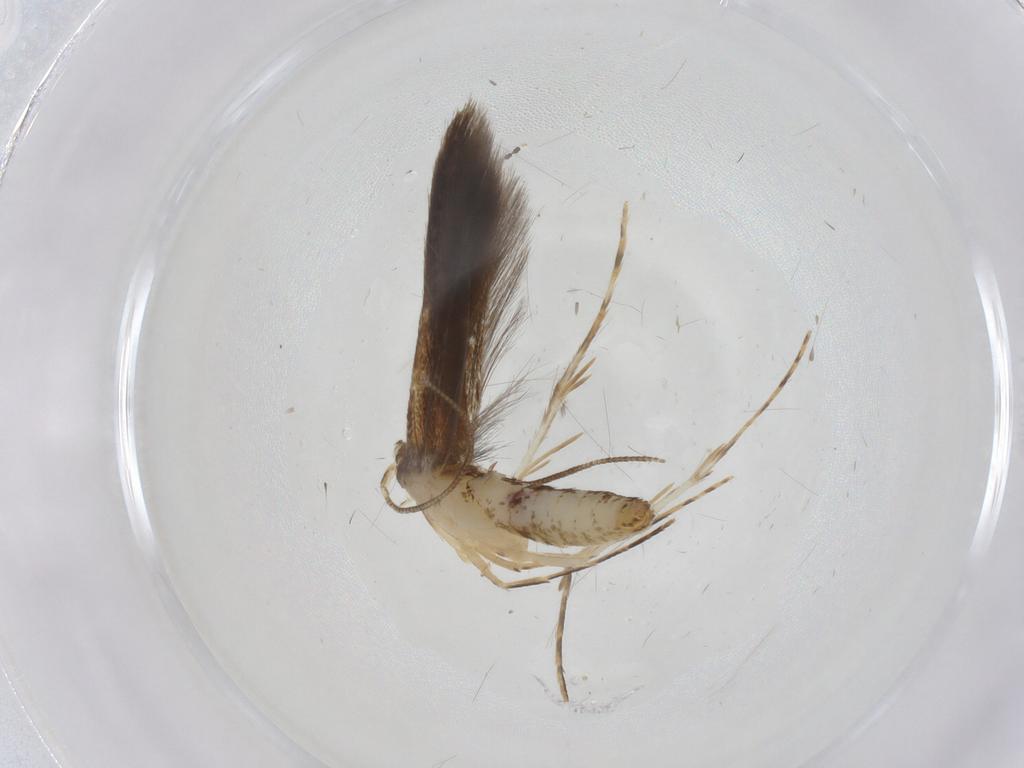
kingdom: Animalia
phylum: Arthropoda
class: Insecta
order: Lepidoptera
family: Psychidae
